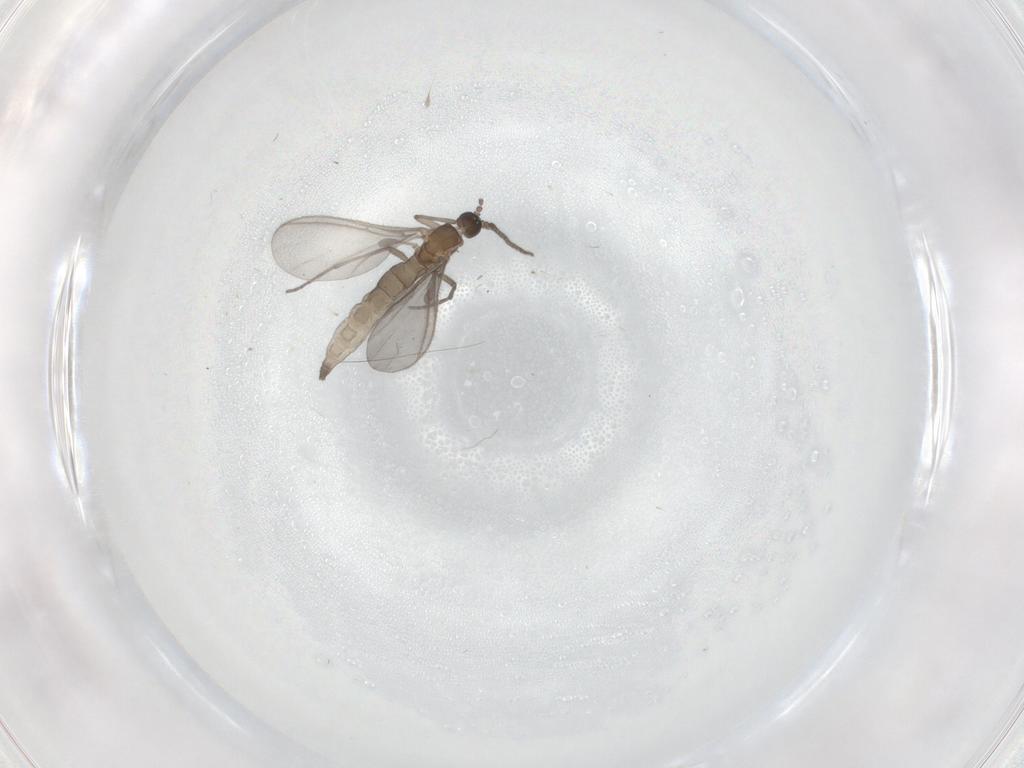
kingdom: Animalia
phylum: Arthropoda
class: Insecta
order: Diptera
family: Sciaridae
